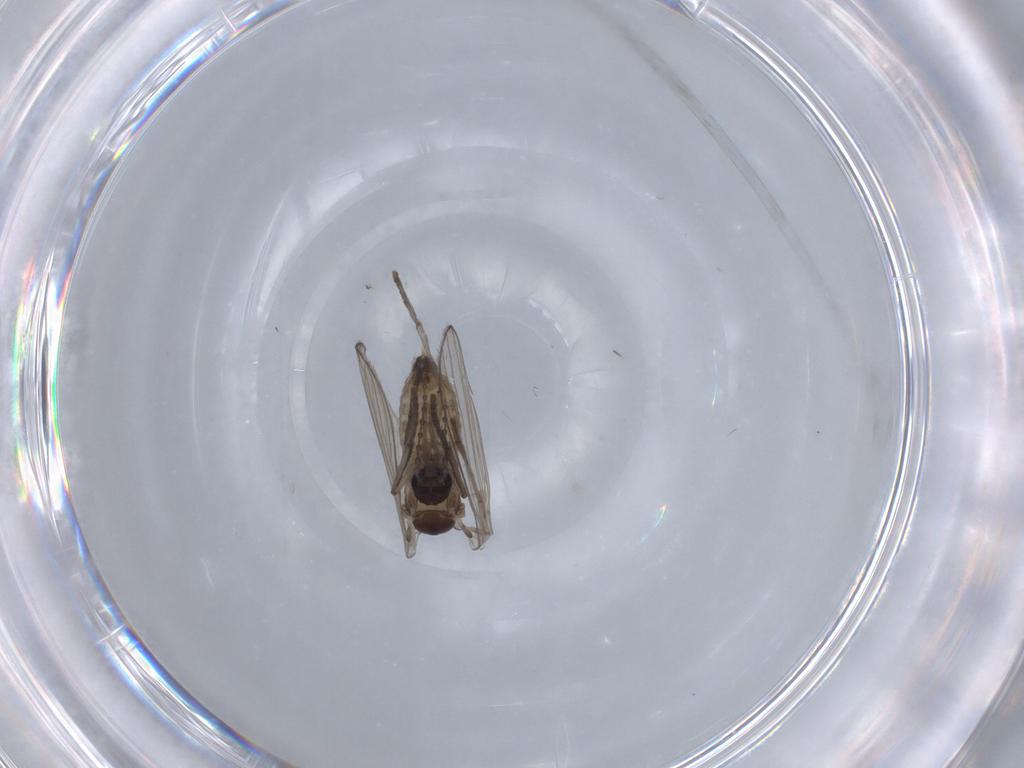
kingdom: Animalia
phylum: Arthropoda
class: Insecta
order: Diptera
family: Psychodidae
